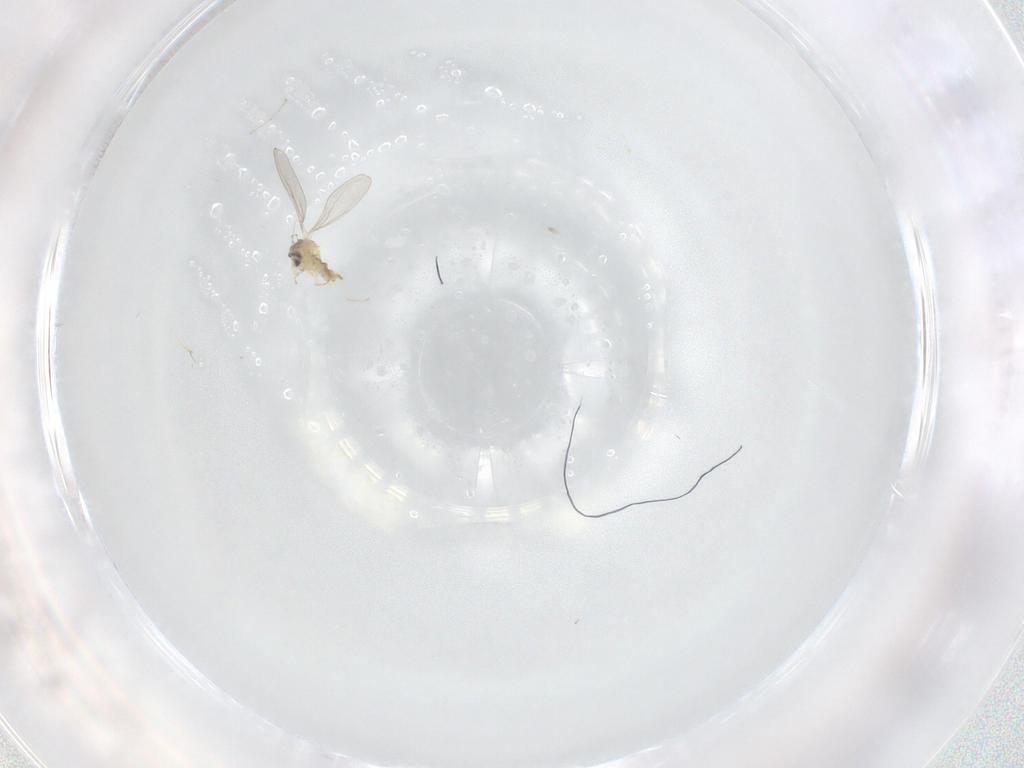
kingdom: Animalia
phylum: Arthropoda
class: Insecta
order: Diptera
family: Cecidomyiidae
